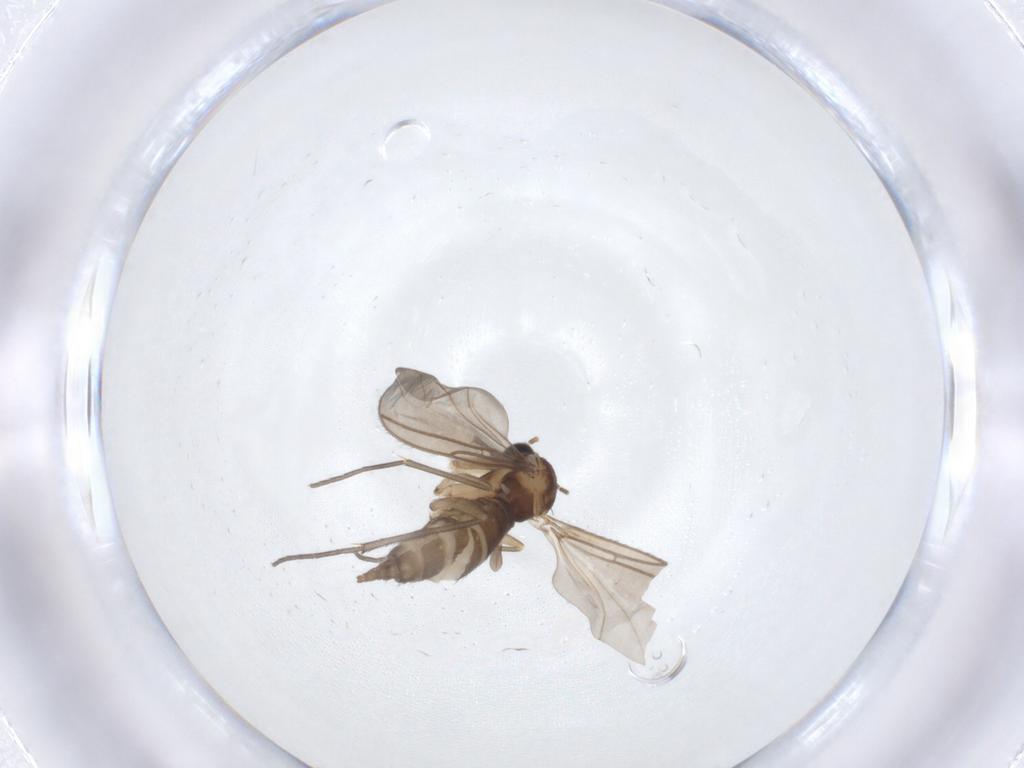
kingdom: Animalia
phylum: Arthropoda
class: Insecta
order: Diptera
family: Sciaridae
